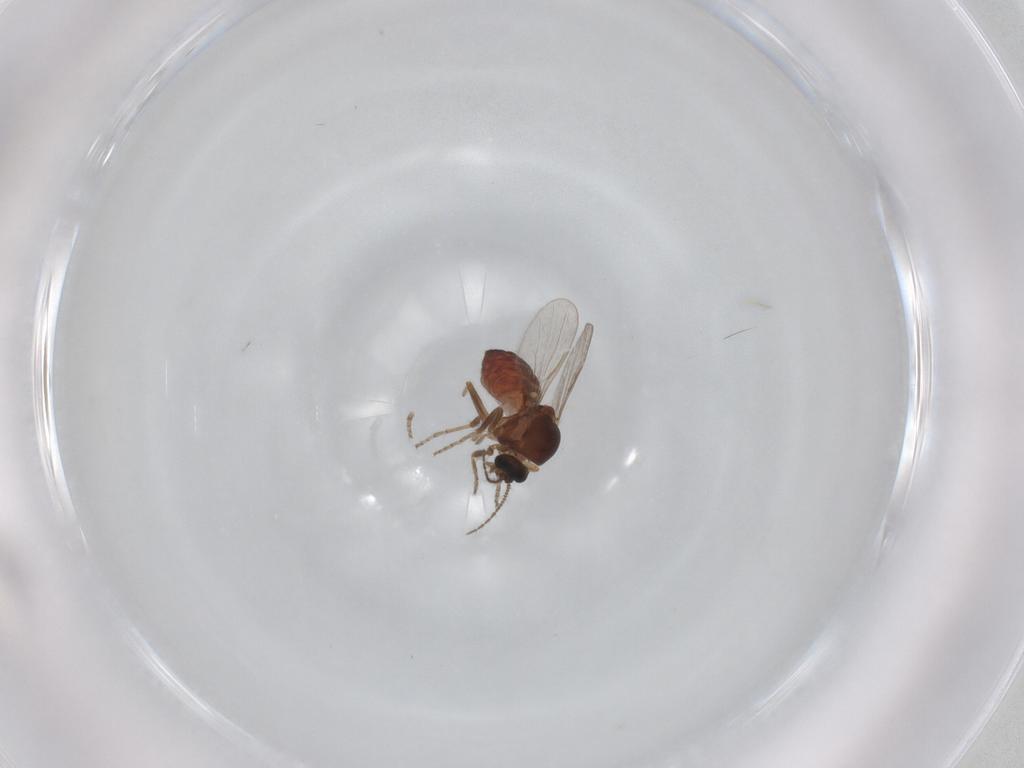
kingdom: Animalia
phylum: Arthropoda
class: Insecta
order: Diptera
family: Ceratopogonidae
